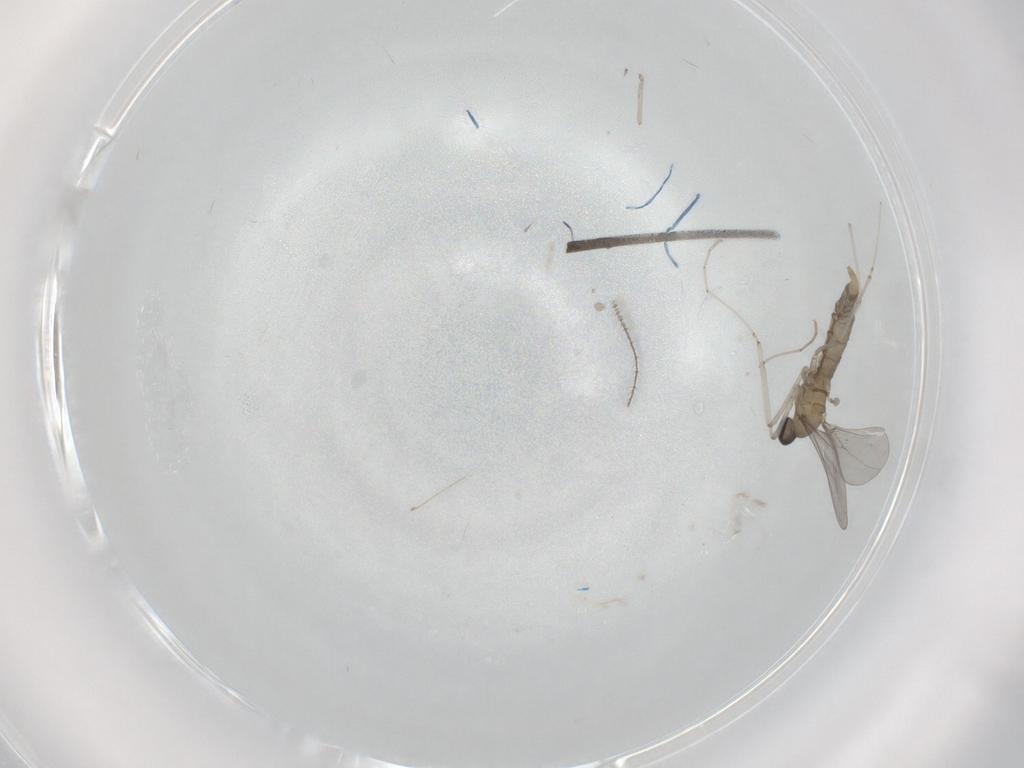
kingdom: Animalia
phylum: Arthropoda
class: Insecta
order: Diptera
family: Cecidomyiidae
